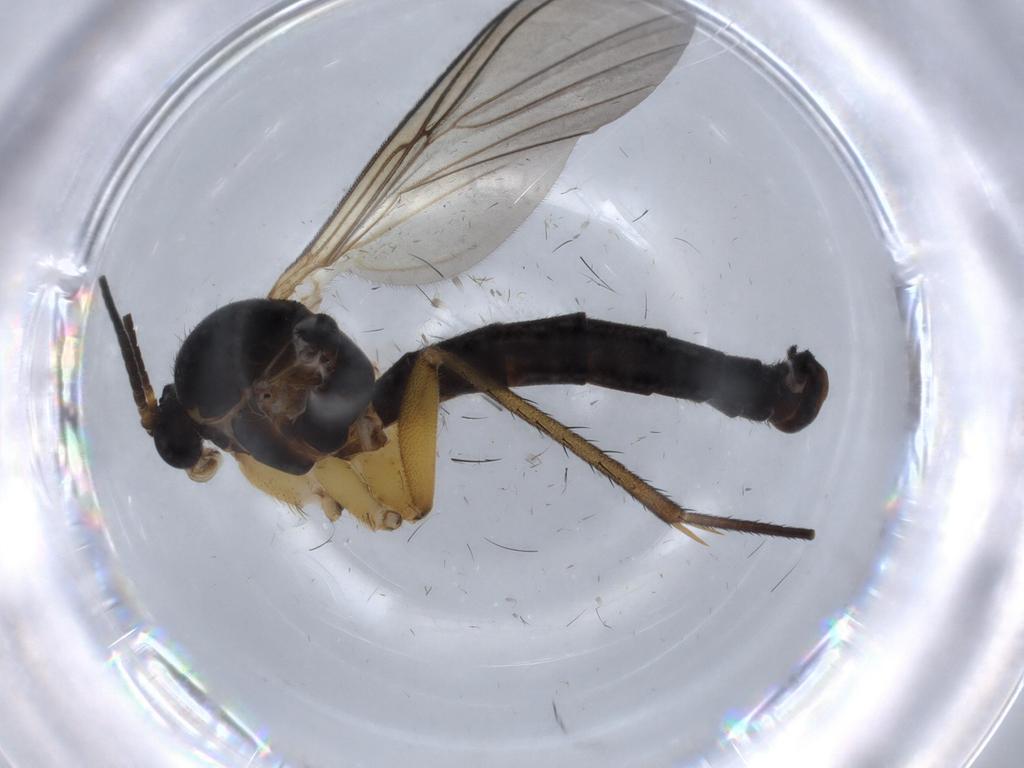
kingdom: Animalia
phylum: Arthropoda
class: Insecta
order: Diptera
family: Sciaridae
